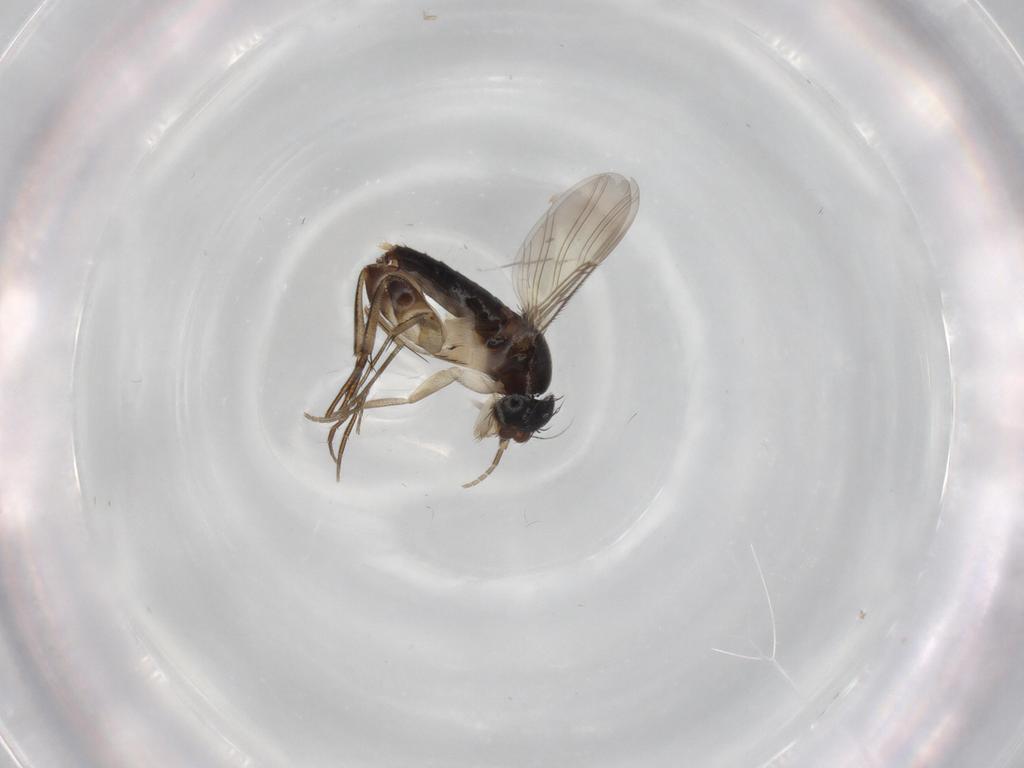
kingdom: Animalia
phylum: Arthropoda
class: Insecta
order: Diptera
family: Phoridae
